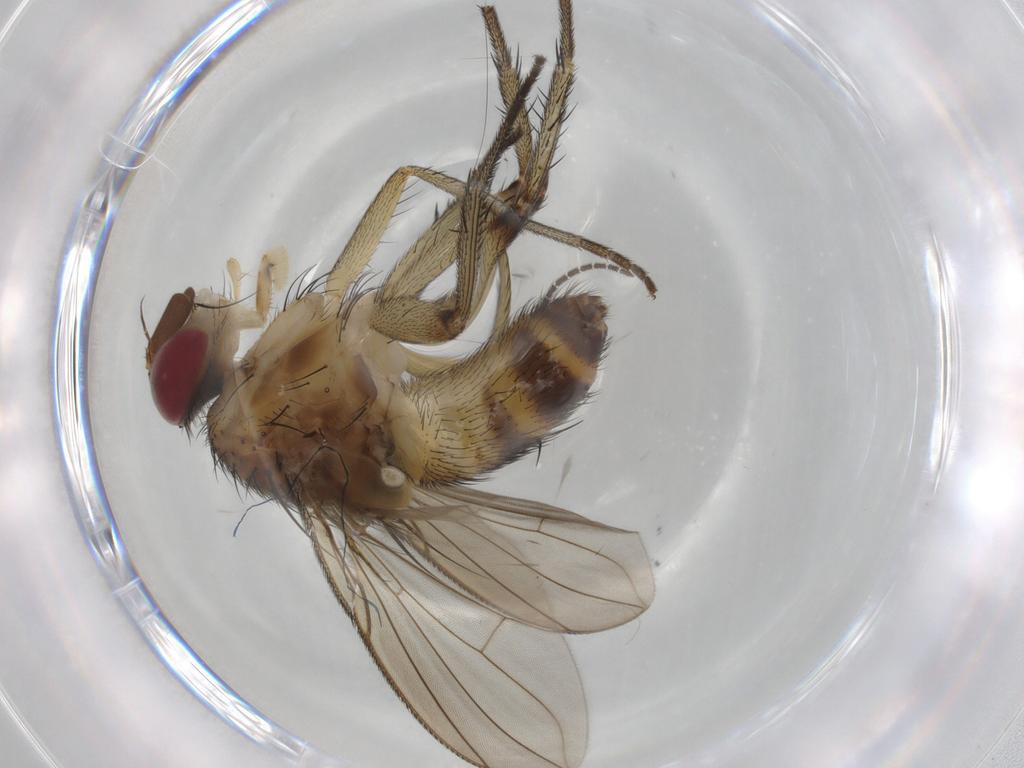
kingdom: Animalia
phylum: Arthropoda
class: Insecta
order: Diptera
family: Tachinidae
